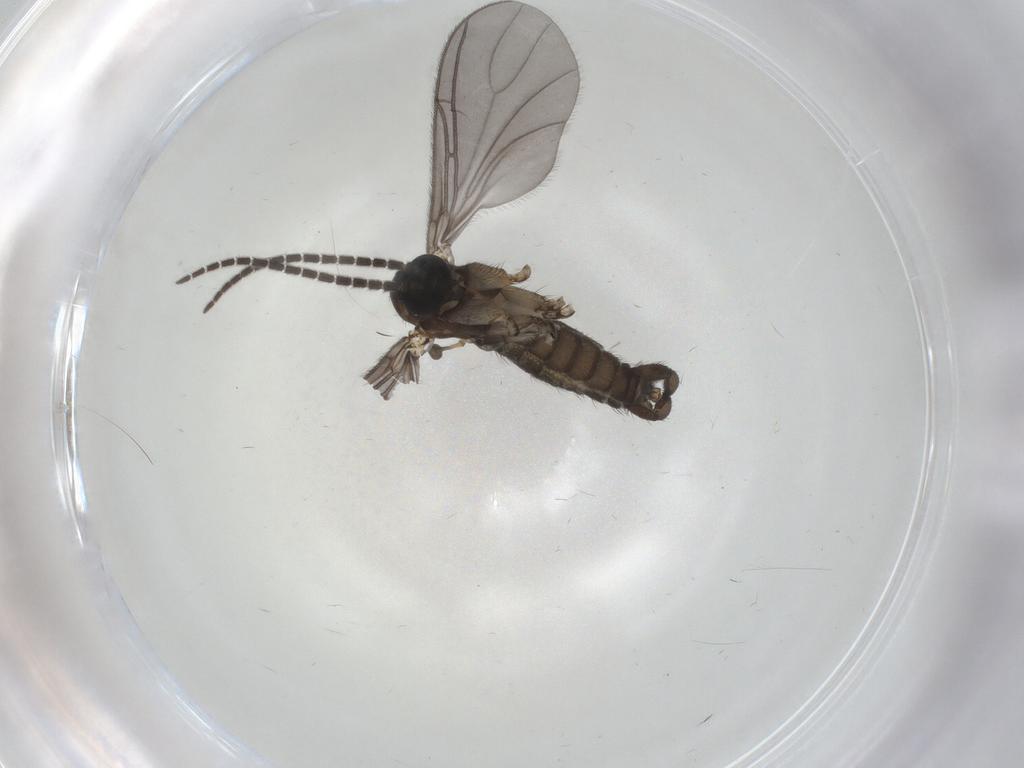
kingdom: Animalia
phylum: Arthropoda
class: Insecta
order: Diptera
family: Sciaridae
